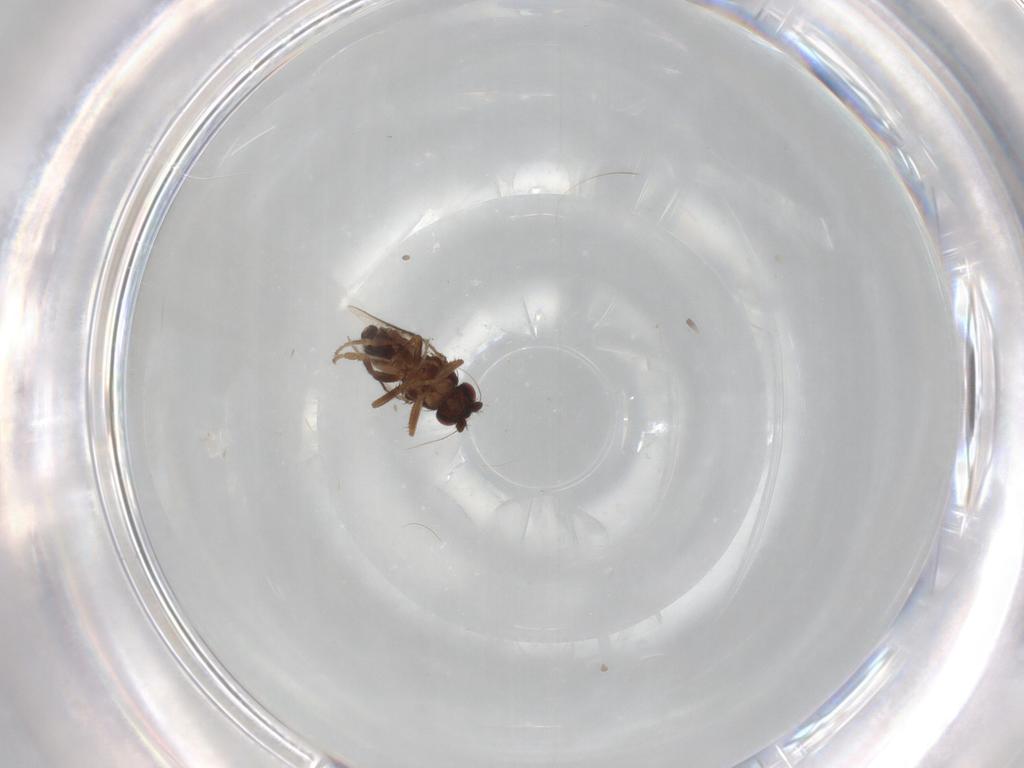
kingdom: Animalia
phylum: Arthropoda
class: Insecta
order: Diptera
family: Sphaeroceridae
